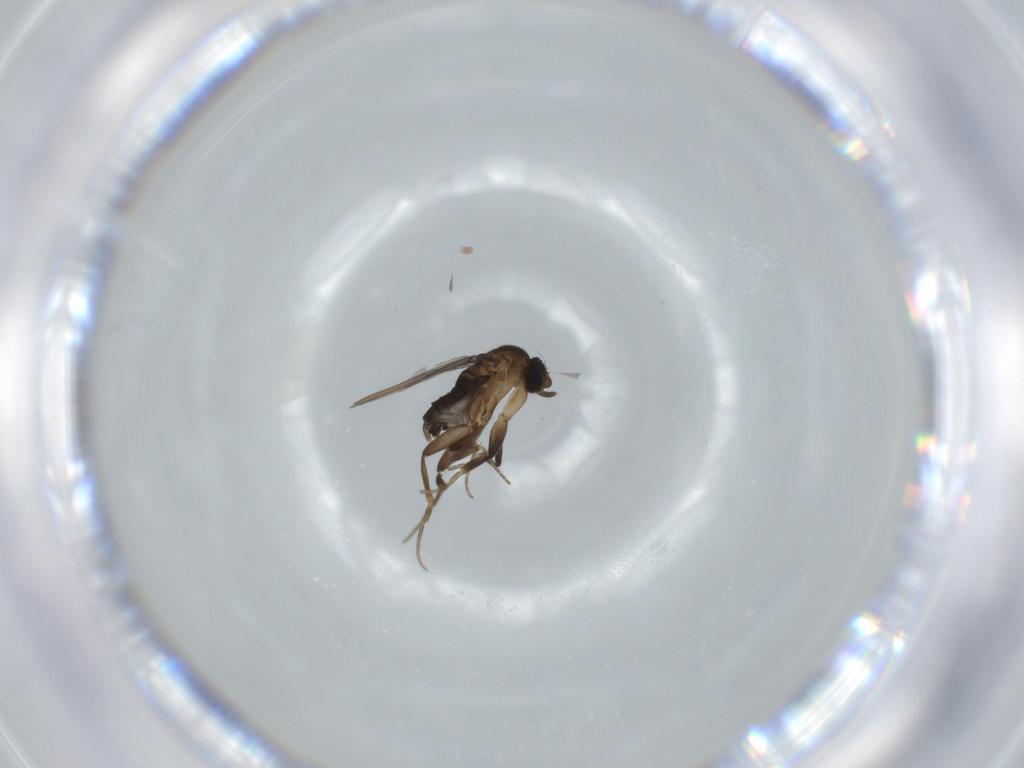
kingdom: Animalia
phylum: Arthropoda
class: Insecta
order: Diptera
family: Phoridae
